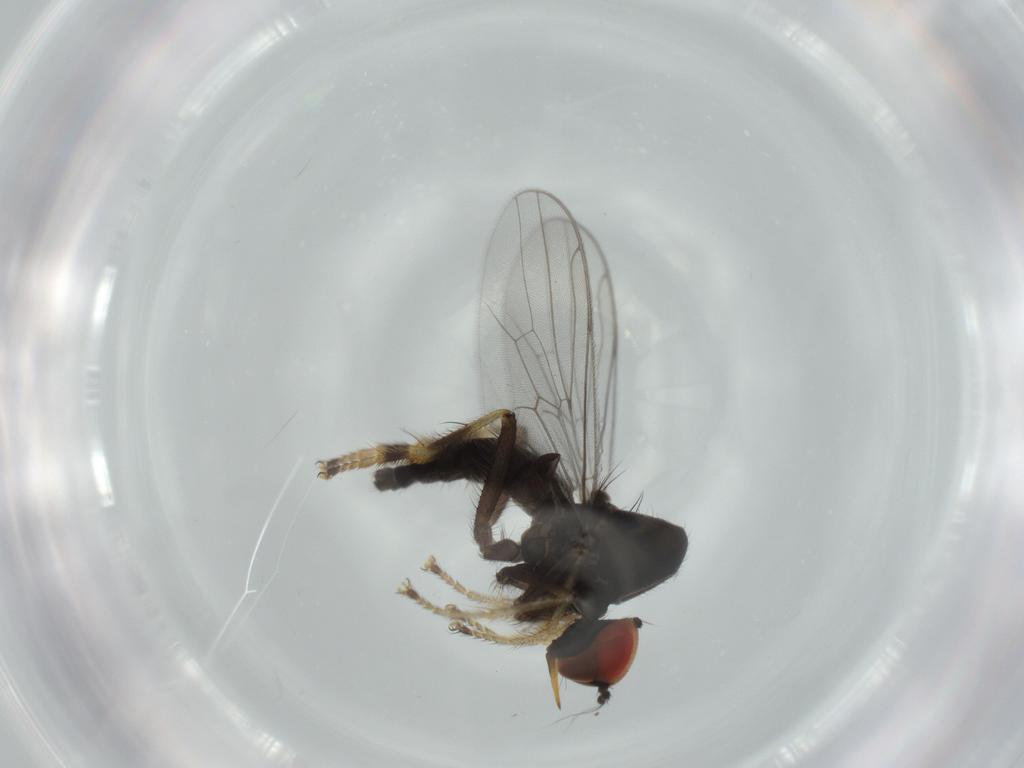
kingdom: Animalia
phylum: Arthropoda
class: Insecta
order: Diptera
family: Hybotidae
